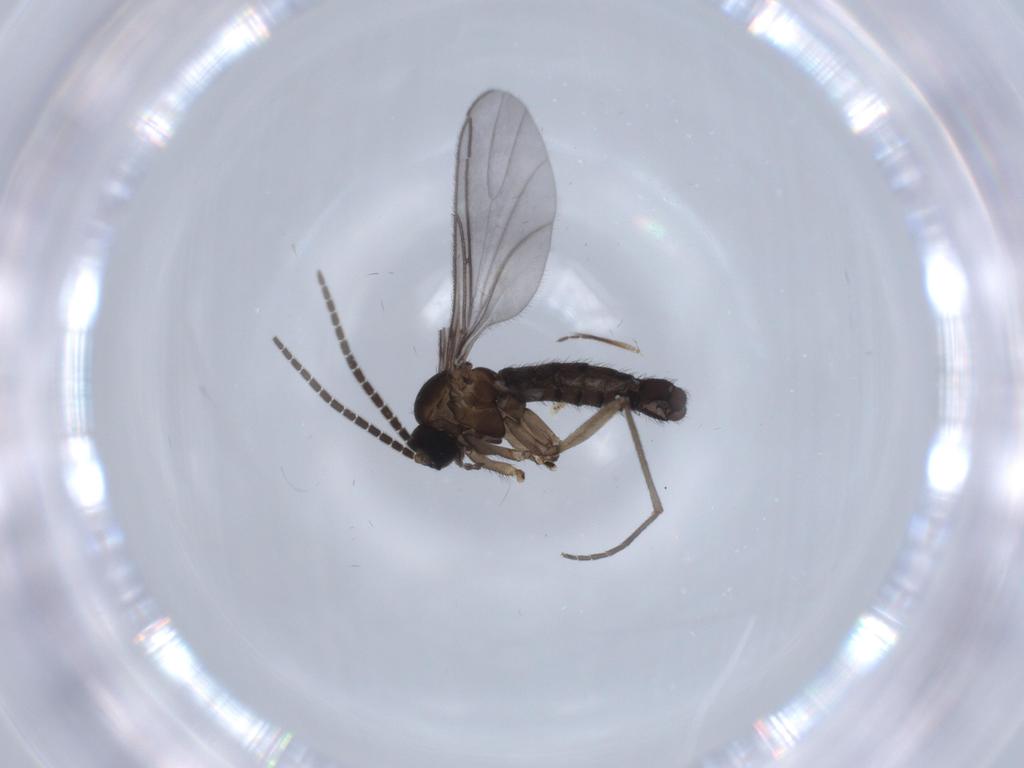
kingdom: Animalia
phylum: Arthropoda
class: Insecta
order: Diptera
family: Sciaridae
